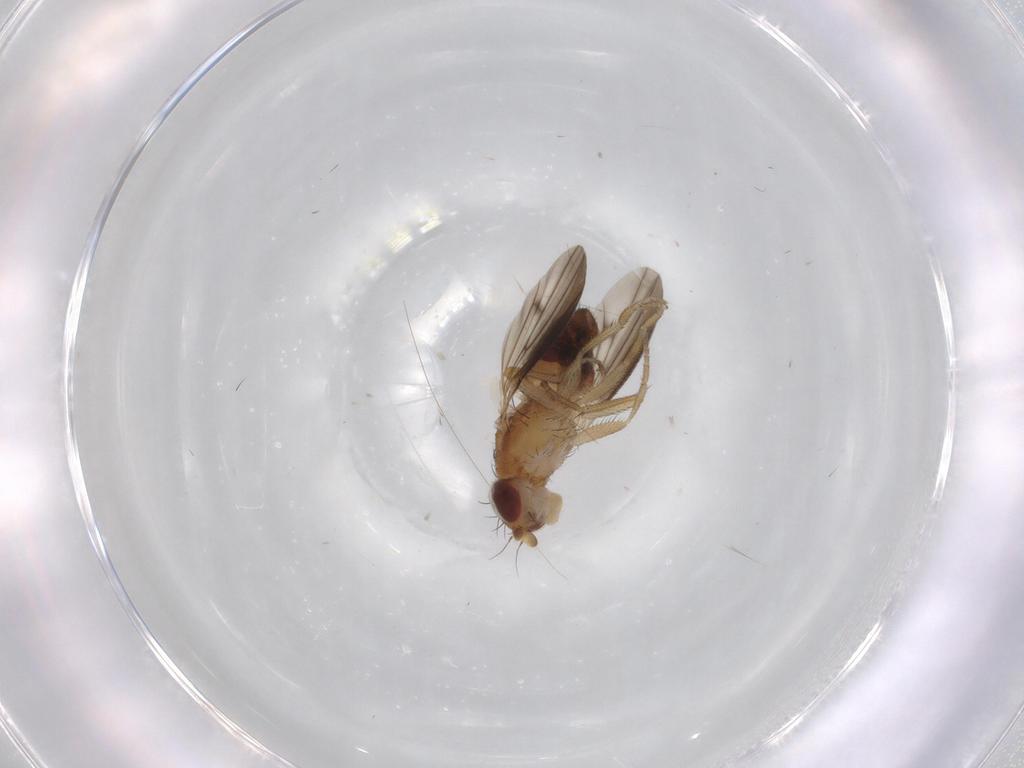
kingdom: Animalia
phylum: Arthropoda
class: Insecta
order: Diptera
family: Heleomyzidae
